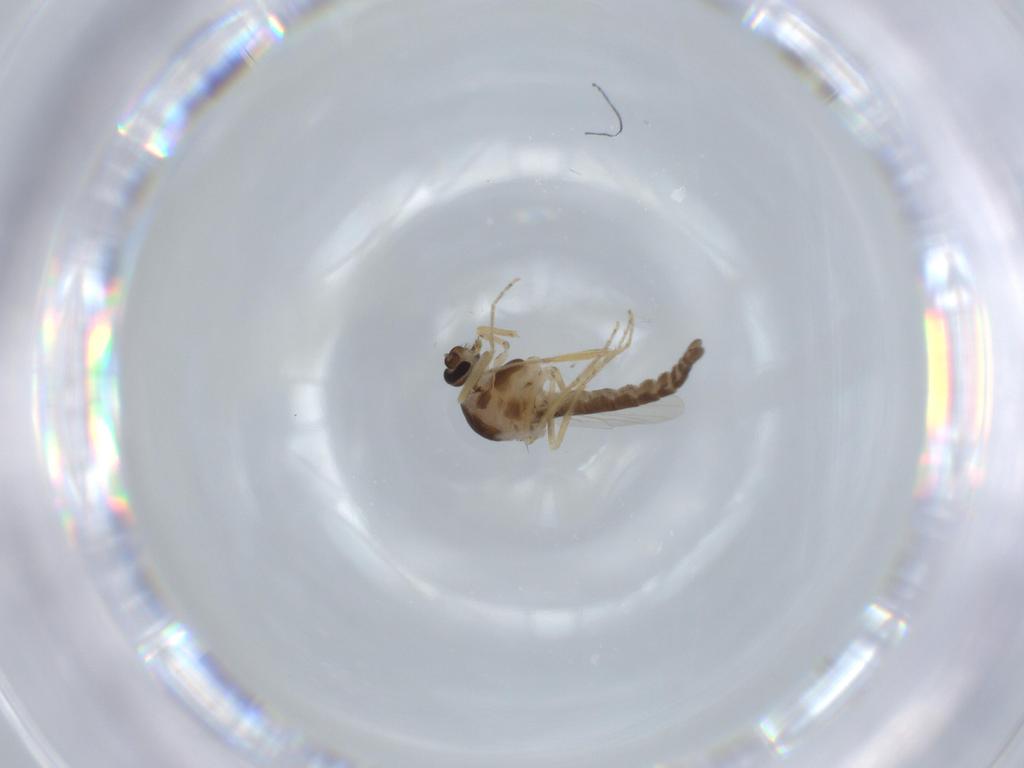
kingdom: Animalia
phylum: Arthropoda
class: Insecta
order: Diptera
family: Ceratopogonidae
